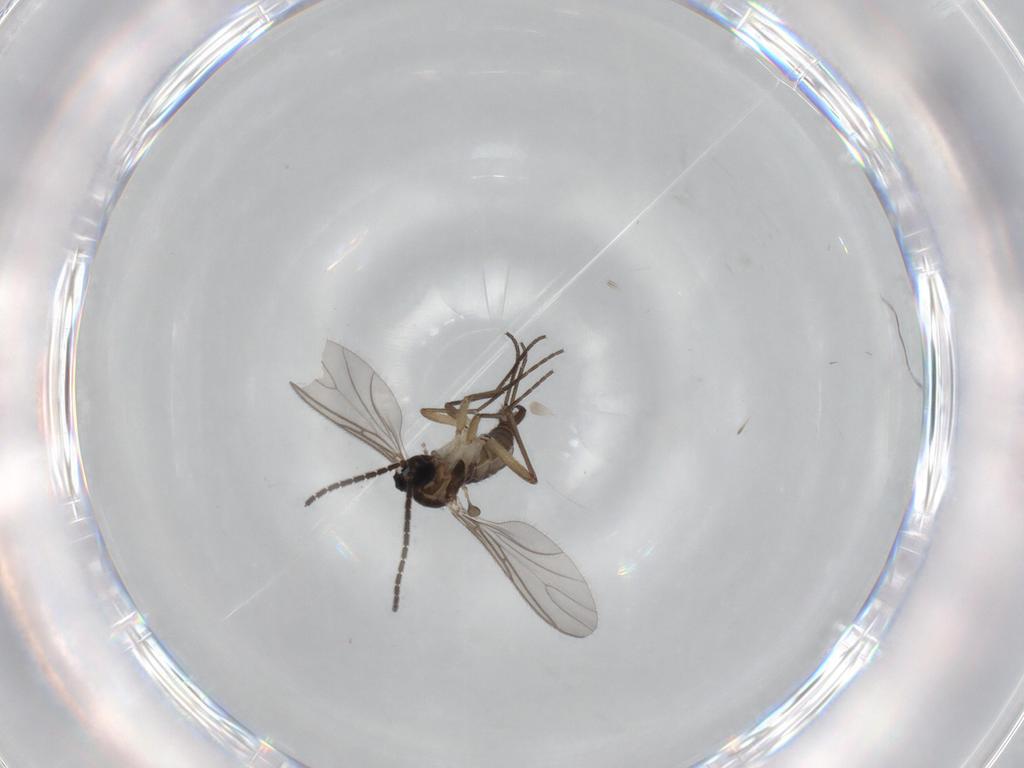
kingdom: Animalia
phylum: Arthropoda
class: Insecta
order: Diptera
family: Sciaridae
